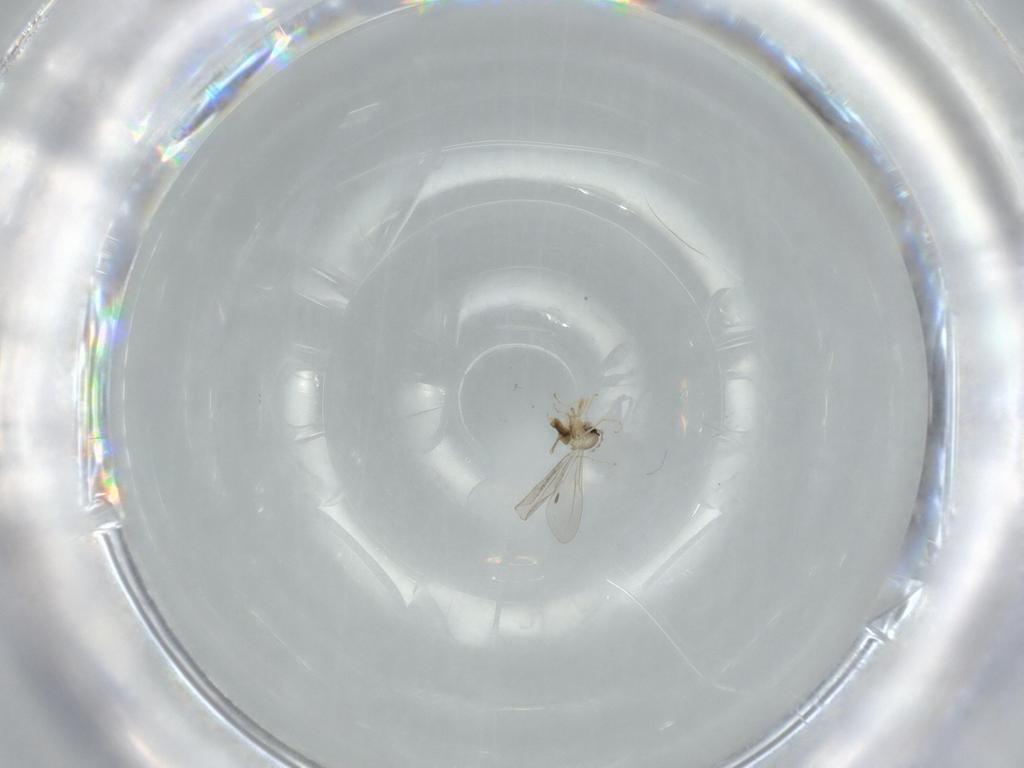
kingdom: Animalia
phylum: Arthropoda
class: Insecta
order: Diptera
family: Cecidomyiidae
